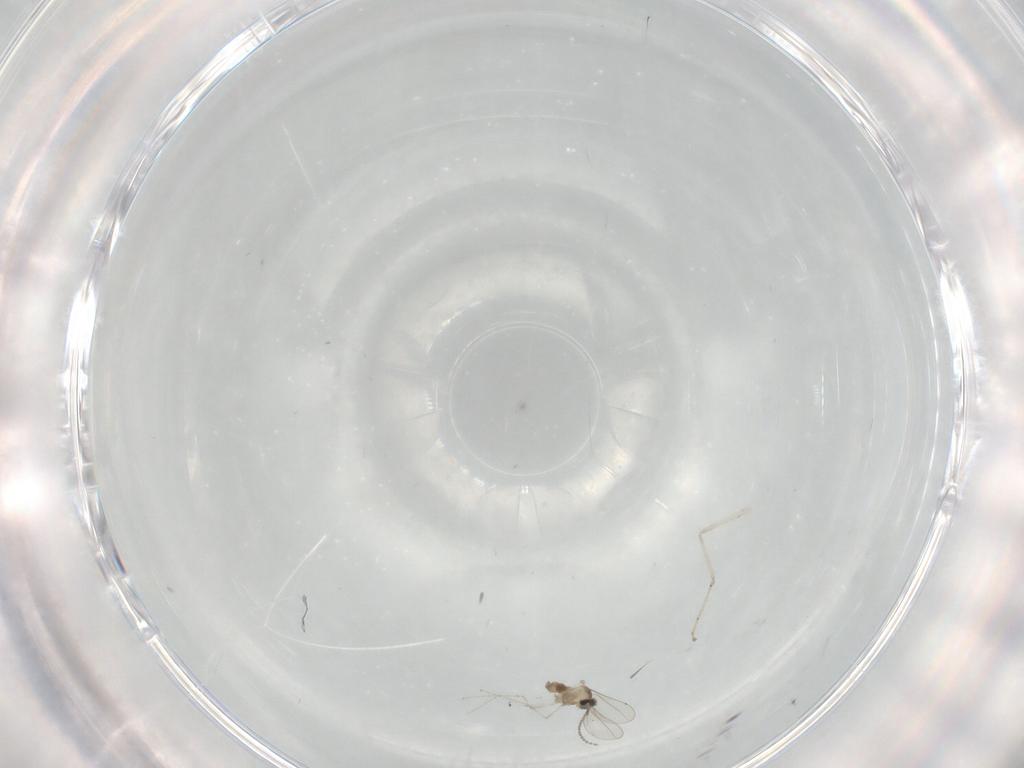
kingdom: Animalia
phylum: Arthropoda
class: Insecta
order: Diptera
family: Cecidomyiidae
